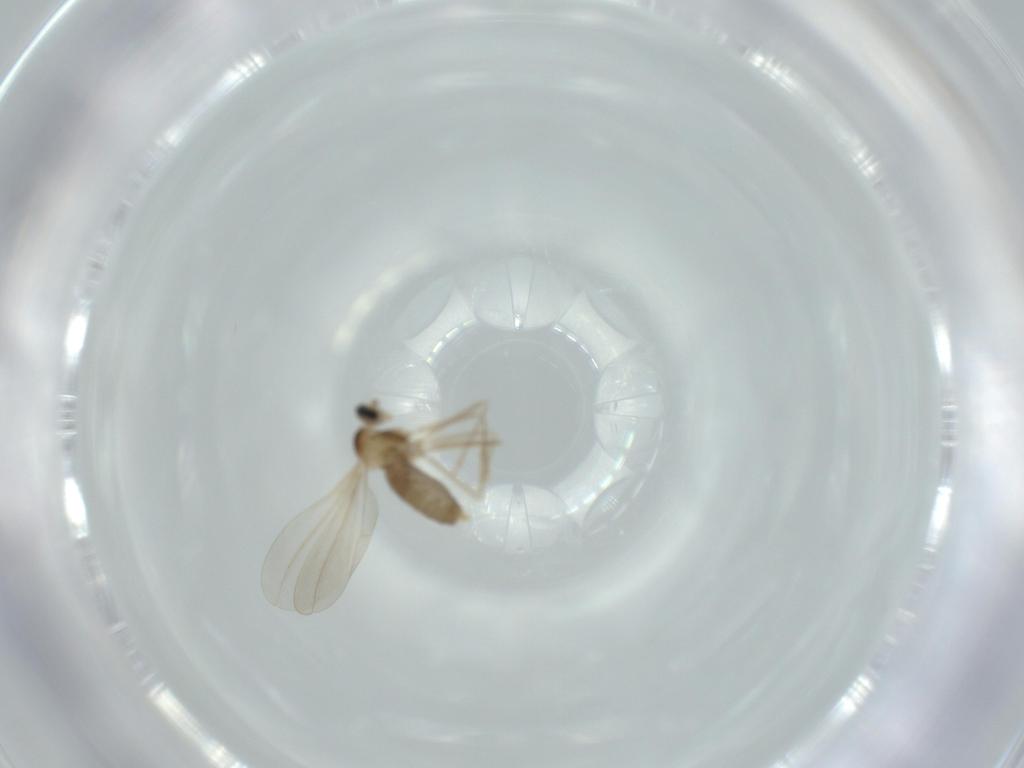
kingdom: Animalia
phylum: Arthropoda
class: Insecta
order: Diptera
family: Cecidomyiidae
